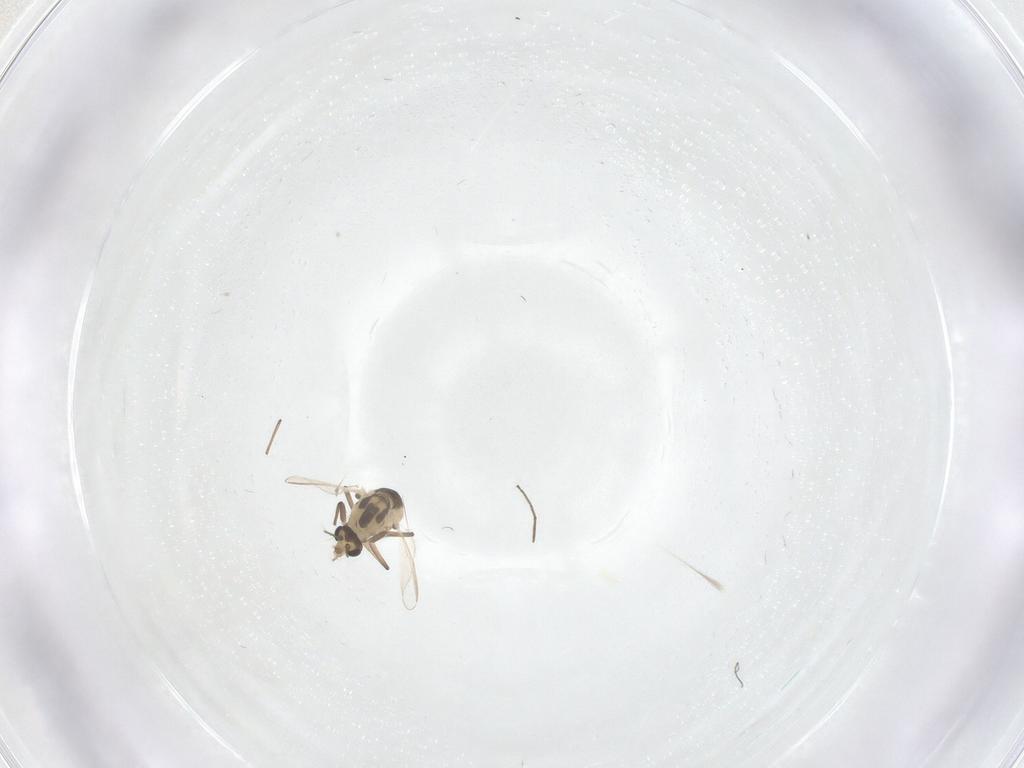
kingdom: Animalia
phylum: Arthropoda
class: Insecta
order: Diptera
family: Chironomidae
